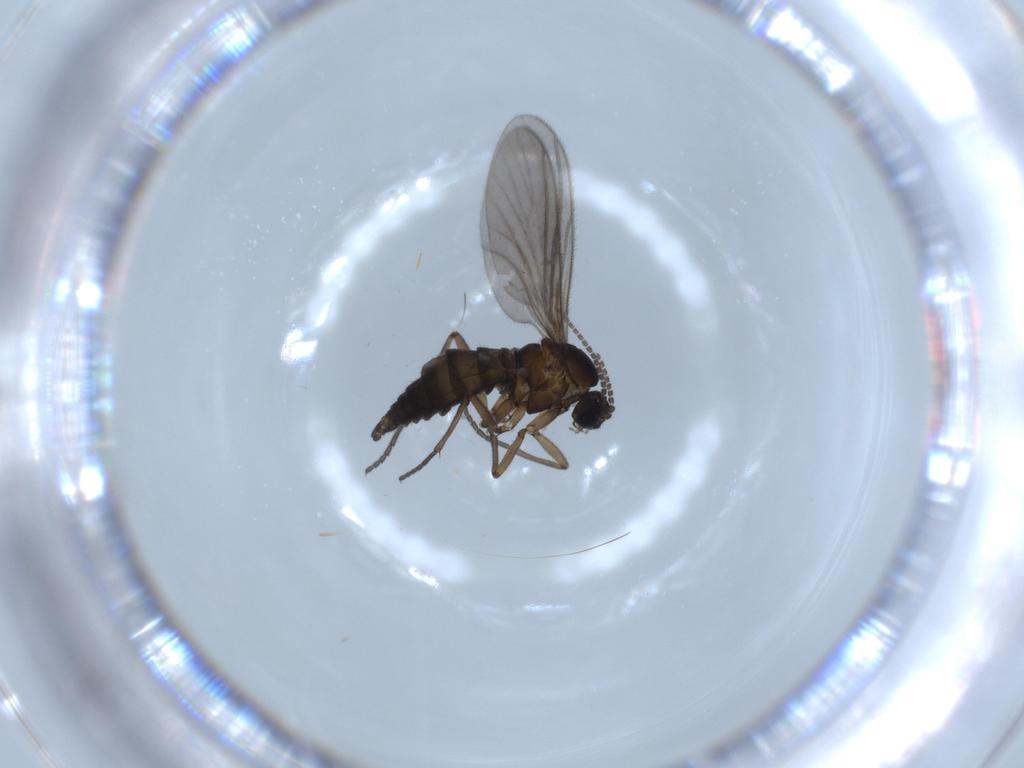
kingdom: Animalia
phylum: Arthropoda
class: Insecta
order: Diptera
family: Sciaridae
